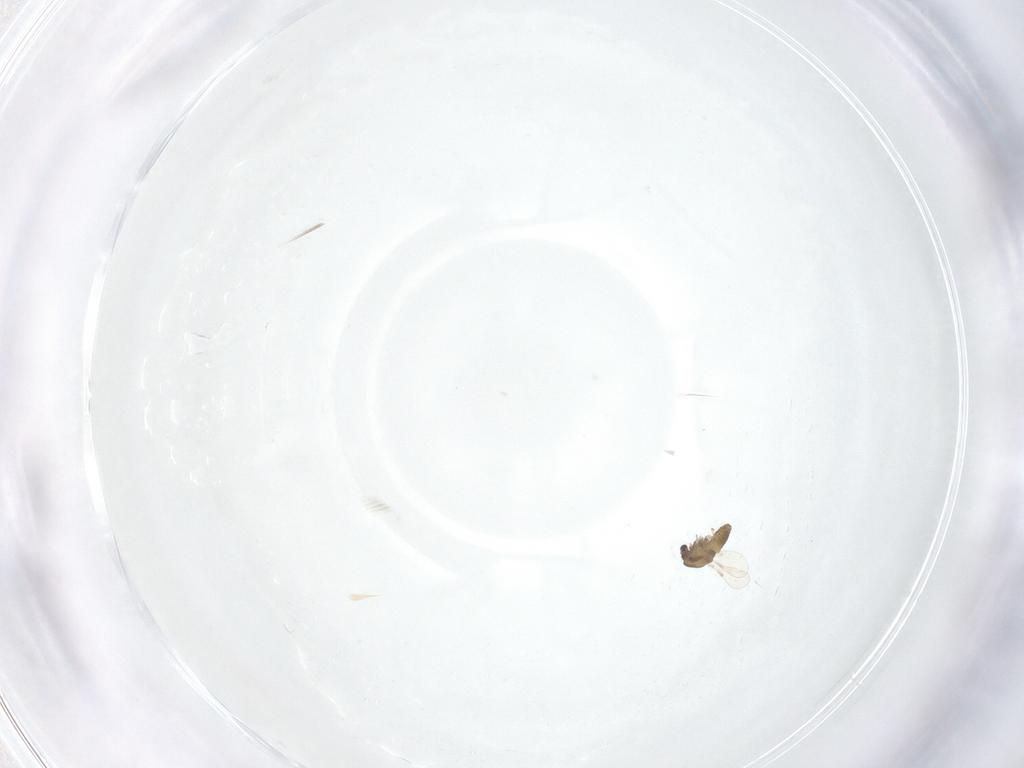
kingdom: Animalia
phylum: Arthropoda
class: Insecta
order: Diptera
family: Chironomidae
